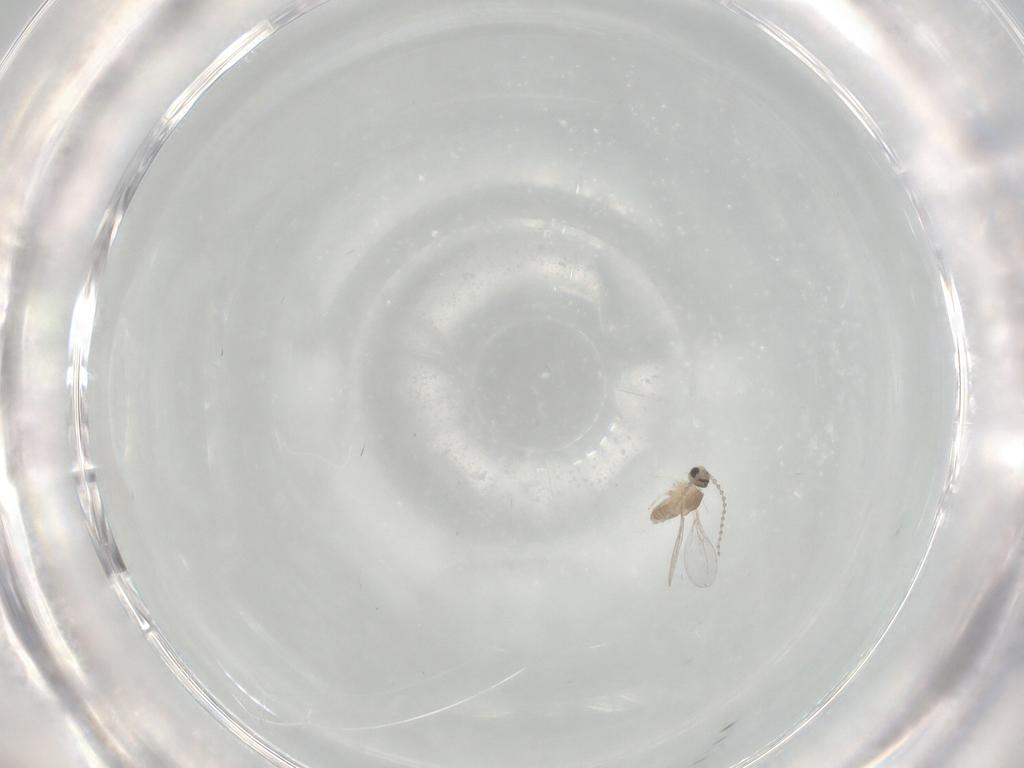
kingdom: Animalia
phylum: Arthropoda
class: Insecta
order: Diptera
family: Cecidomyiidae
